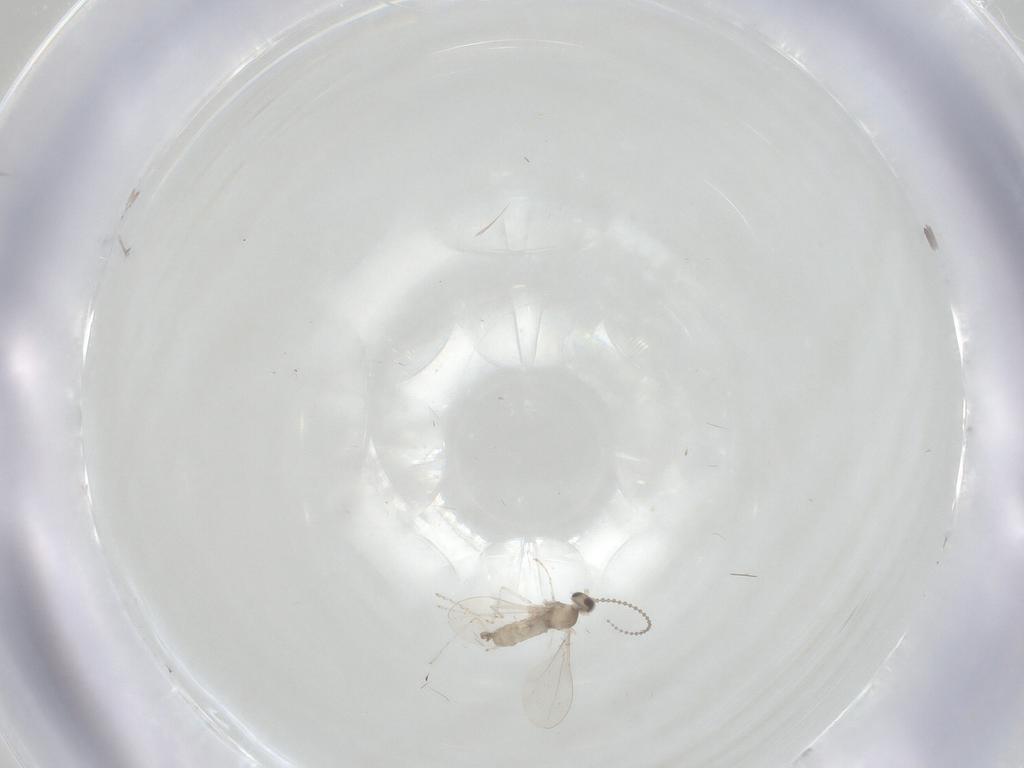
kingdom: Animalia
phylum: Arthropoda
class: Insecta
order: Diptera
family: Cecidomyiidae
